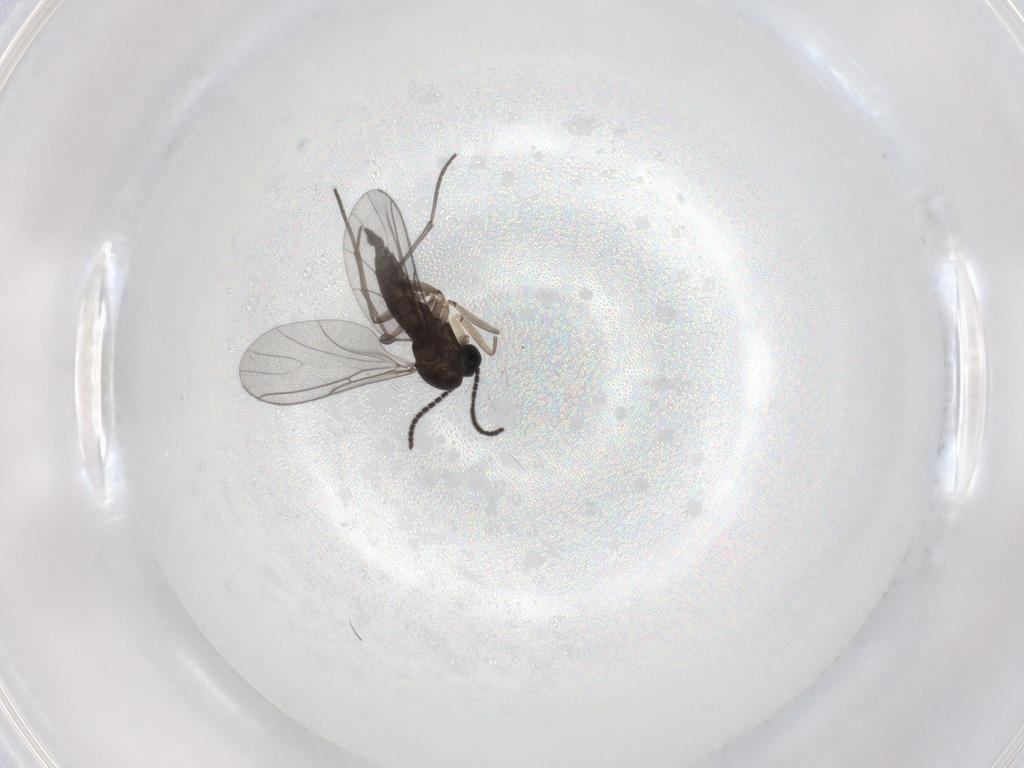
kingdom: Animalia
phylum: Arthropoda
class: Insecta
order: Diptera
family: Sciaridae
